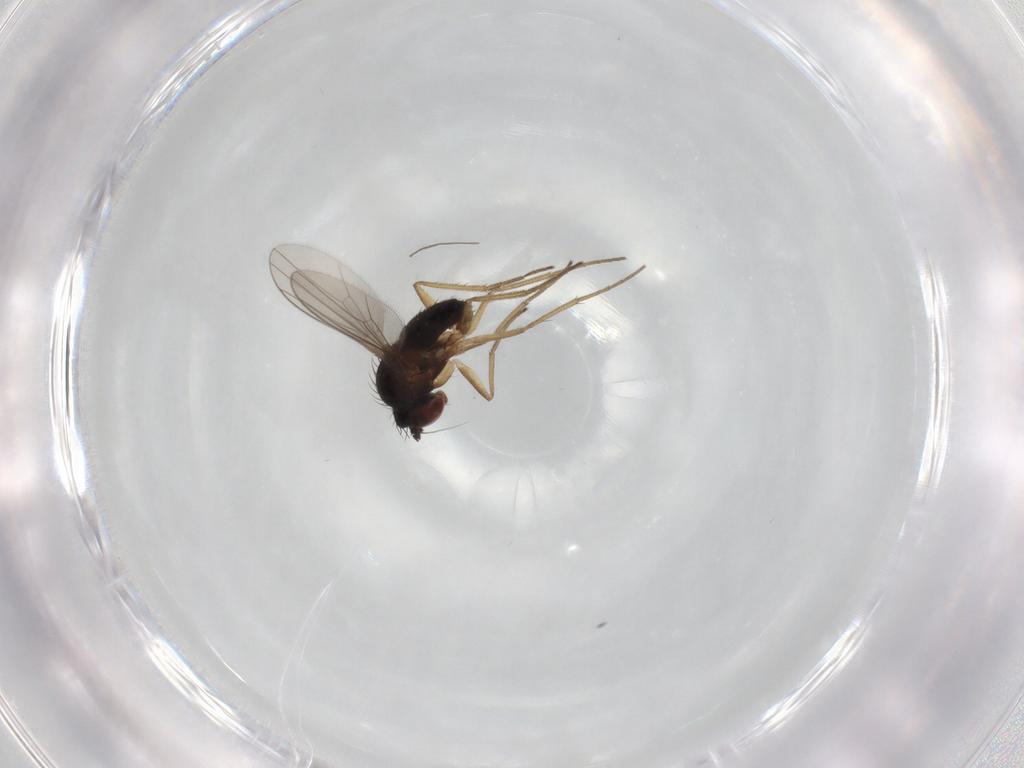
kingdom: Animalia
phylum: Arthropoda
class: Insecta
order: Diptera
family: Dolichopodidae
